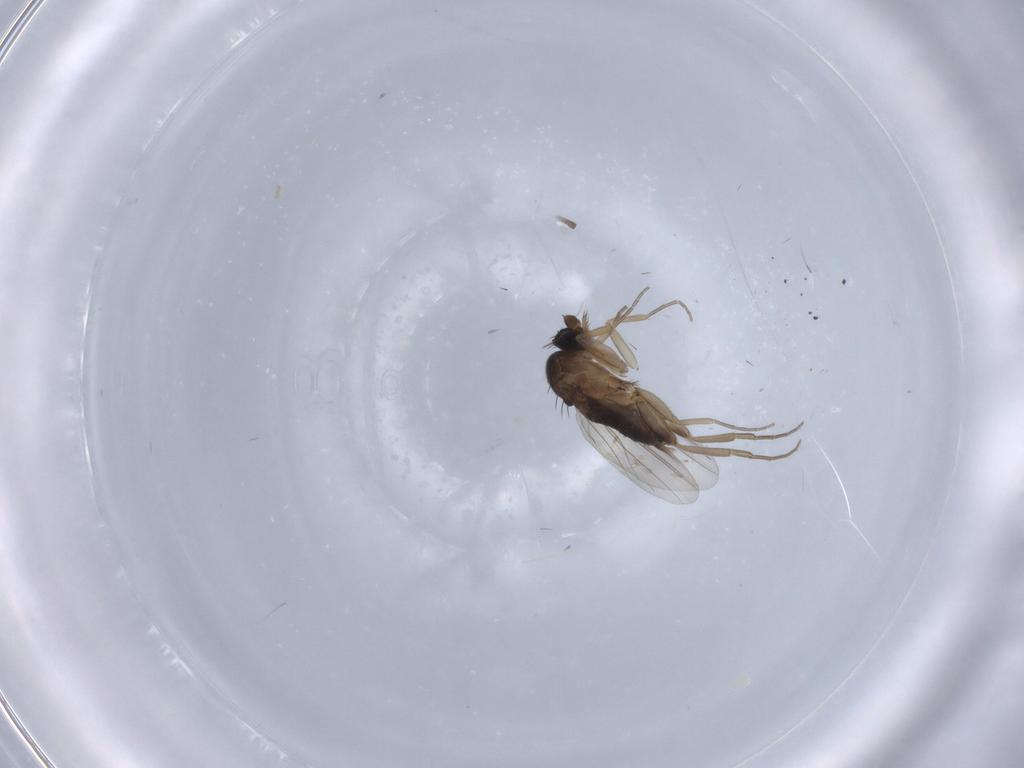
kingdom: Animalia
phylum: Arthropoda
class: Insecta
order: Diptera
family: Phoridae
